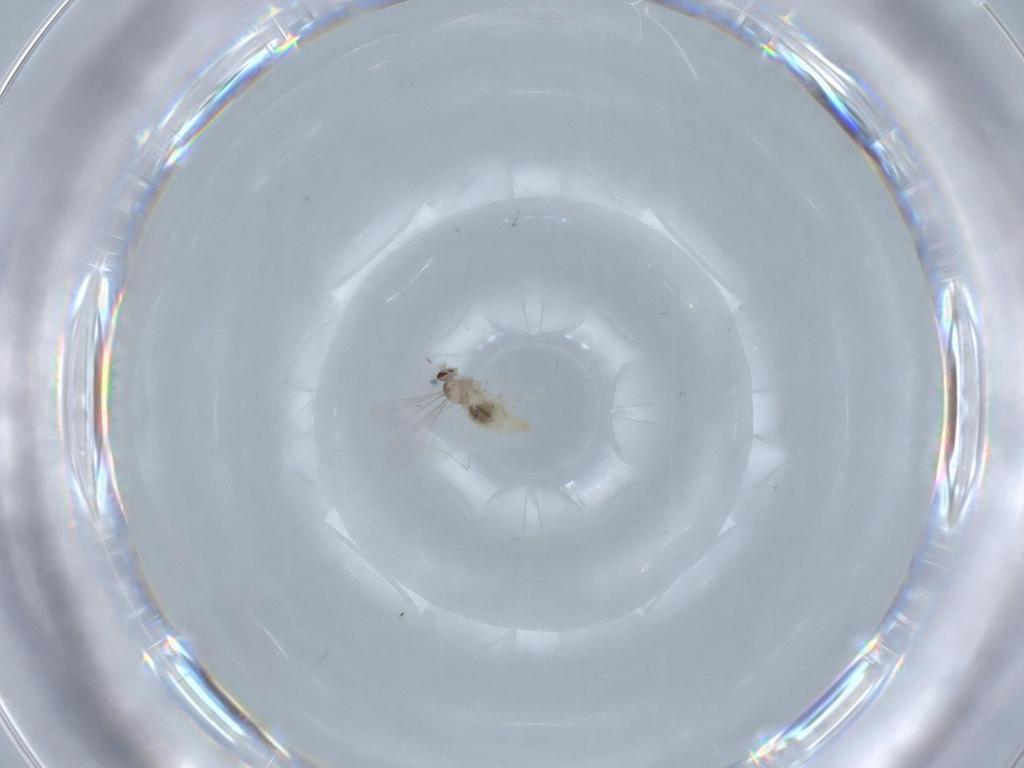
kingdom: Animalia
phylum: Arthropoda
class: Insecta
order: Diptera
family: Cecidomyiidae
